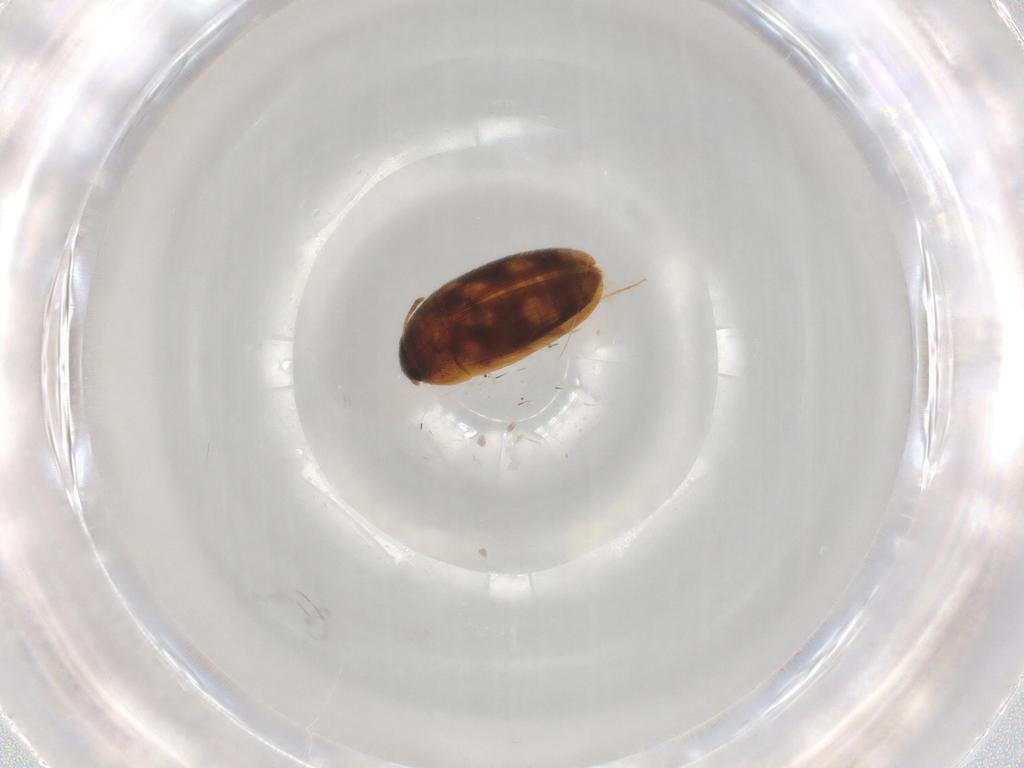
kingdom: Animalia
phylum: Arthropoda
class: Insecta
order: Coleoptera
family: Mycetophagidae
